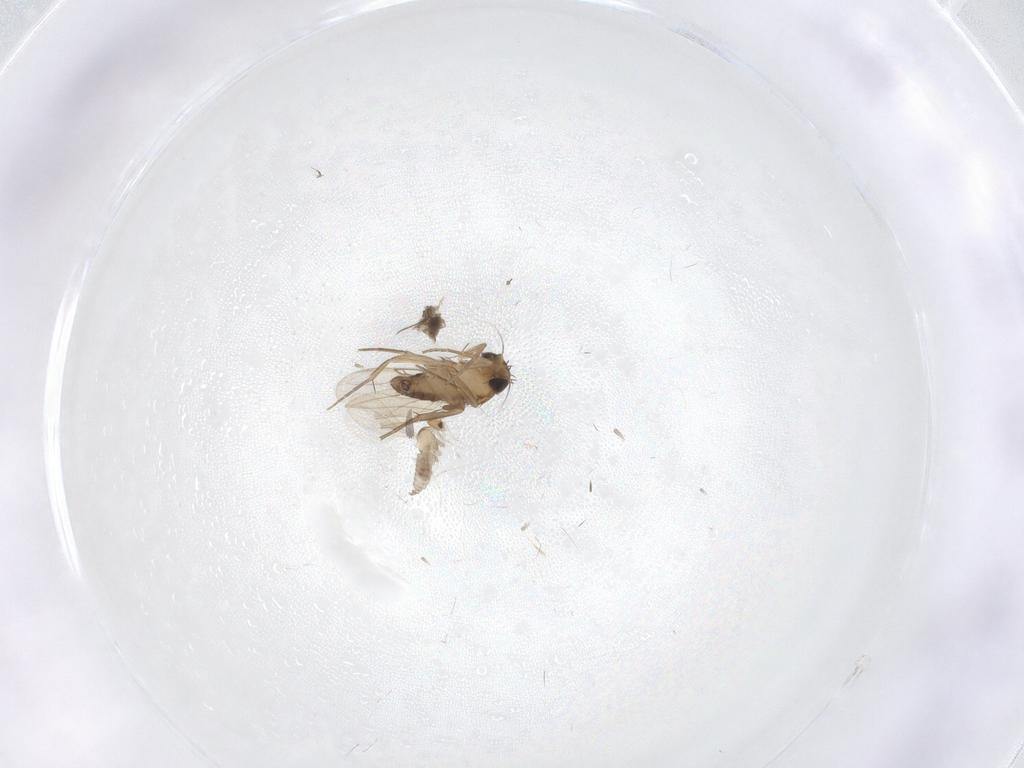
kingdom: Animalia
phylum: Arthropoda
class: Insecta
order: Diptera
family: Phoridae
